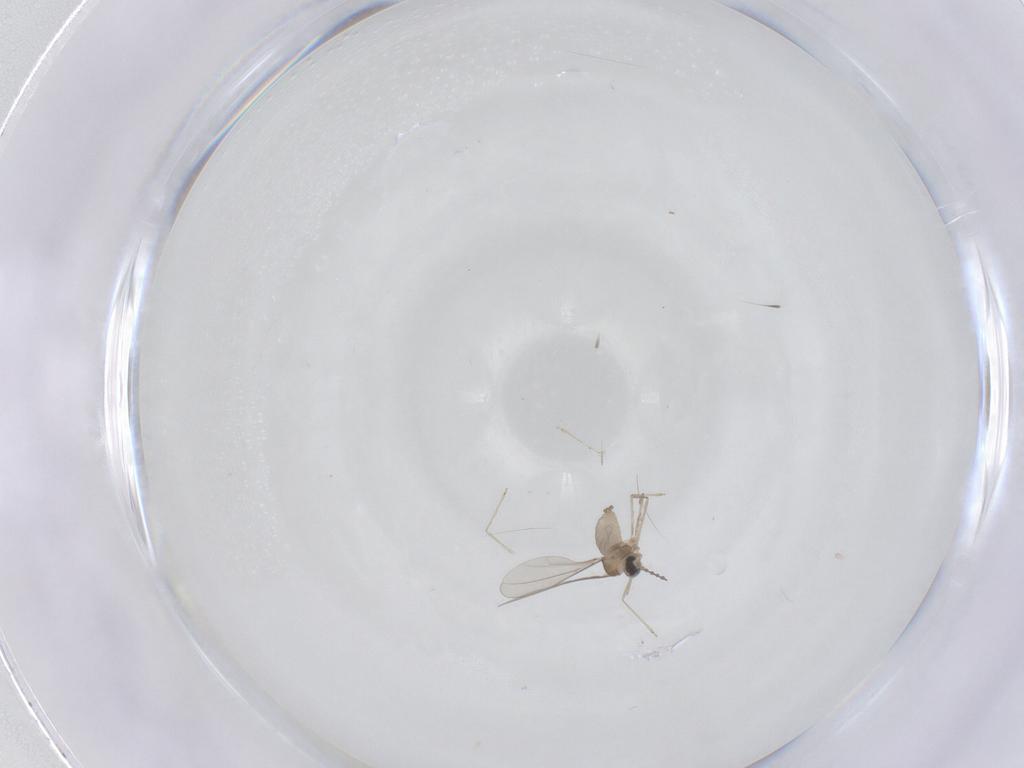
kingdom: Animalia
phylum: Arthropoda
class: Insecta
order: Diptera
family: Cecidomyiidae
